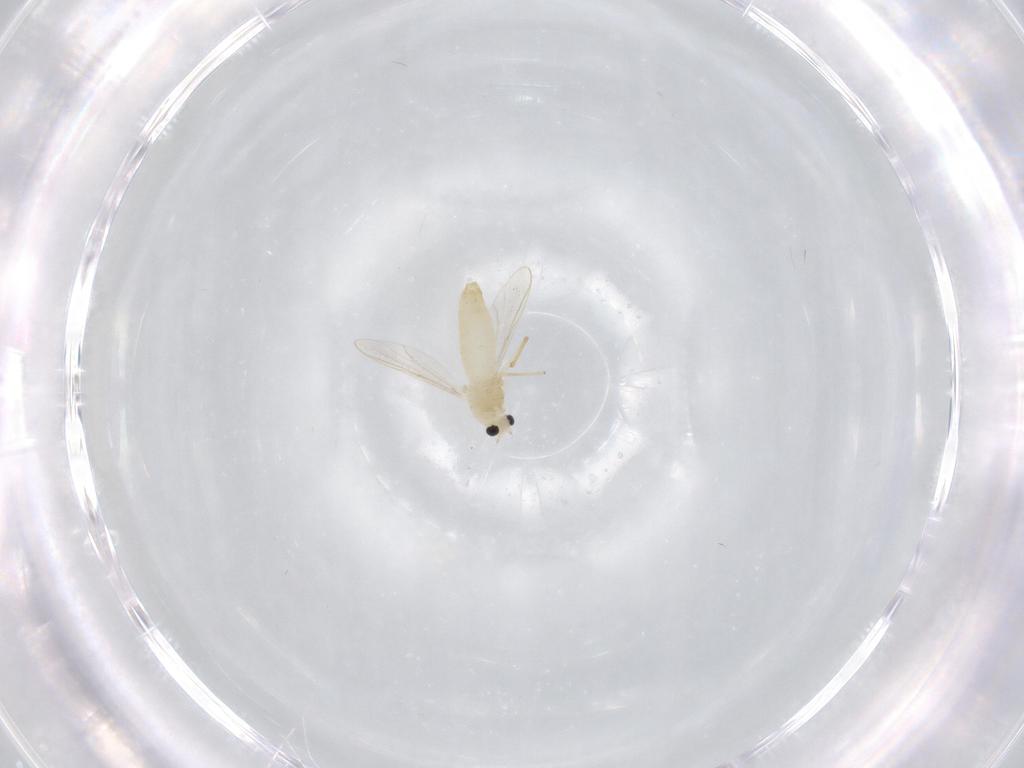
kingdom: Animalia
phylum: Arthropoda
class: Insecta
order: Diptera
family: Chironomidae
